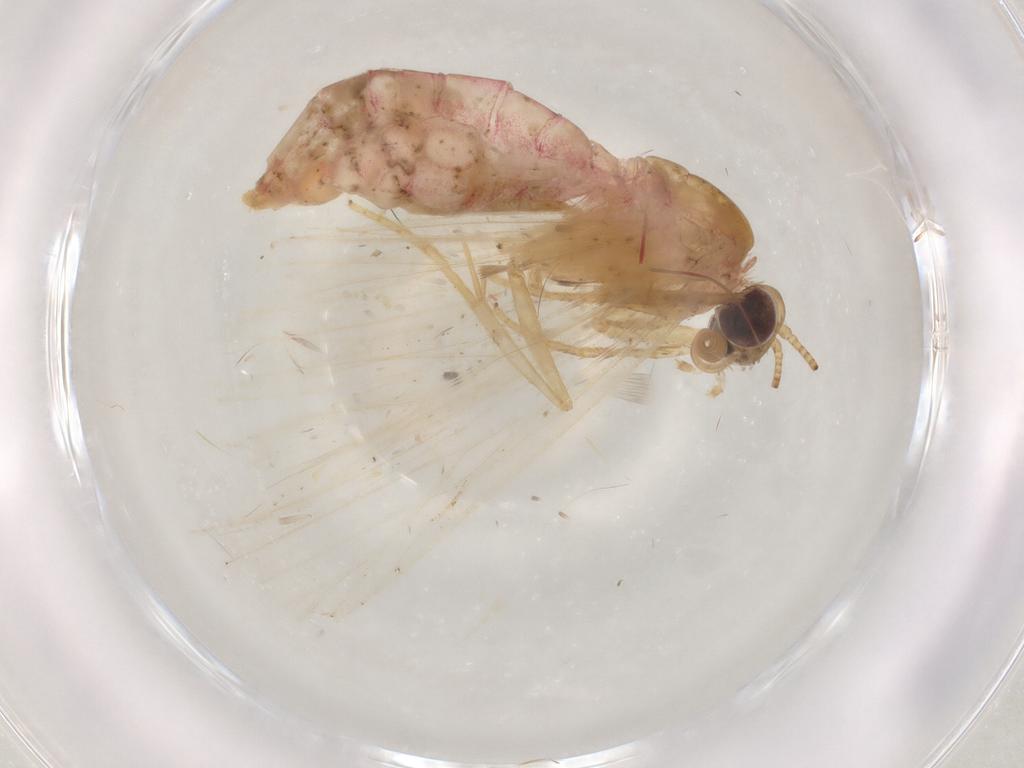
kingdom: Animalia
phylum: Arthropoda
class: Insecta
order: Lepidoptera
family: Geometridae
